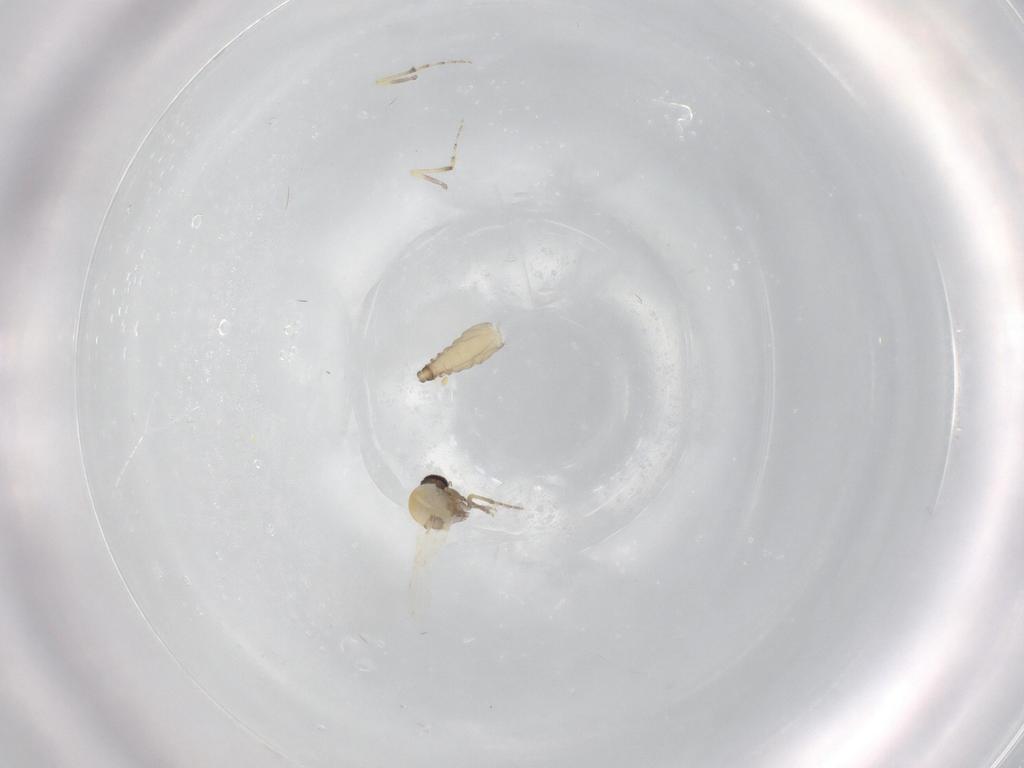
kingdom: Animalia
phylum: Arthropoda
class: Insecta
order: Diptera
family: Ceratopogonidae
